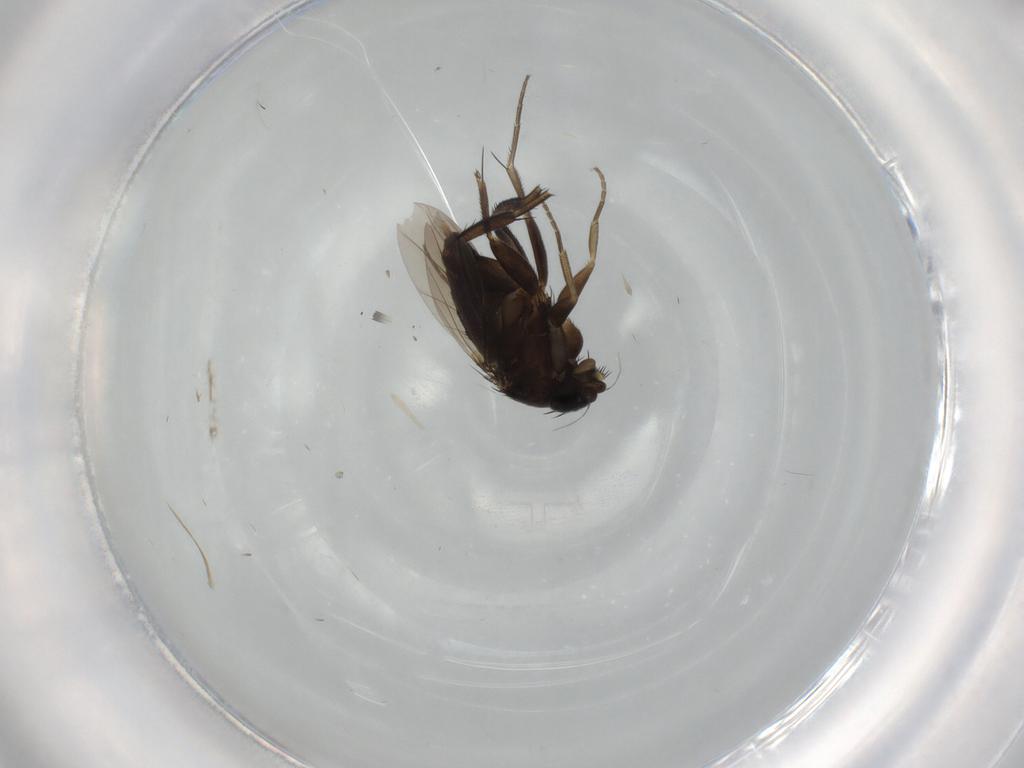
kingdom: Animalia
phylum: Arthropoda
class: Insecta
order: Diptera
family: Phoridae
